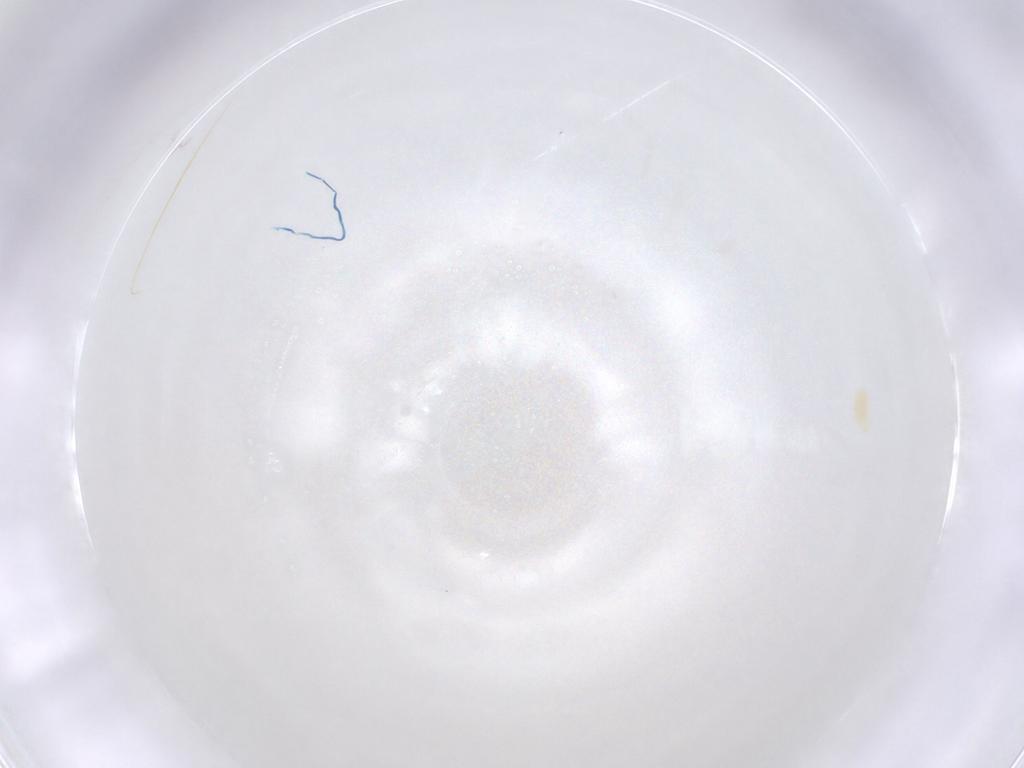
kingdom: Animalia
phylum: Arthropoda
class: Arachnida
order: Trombidiformes
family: Tetranychidae
